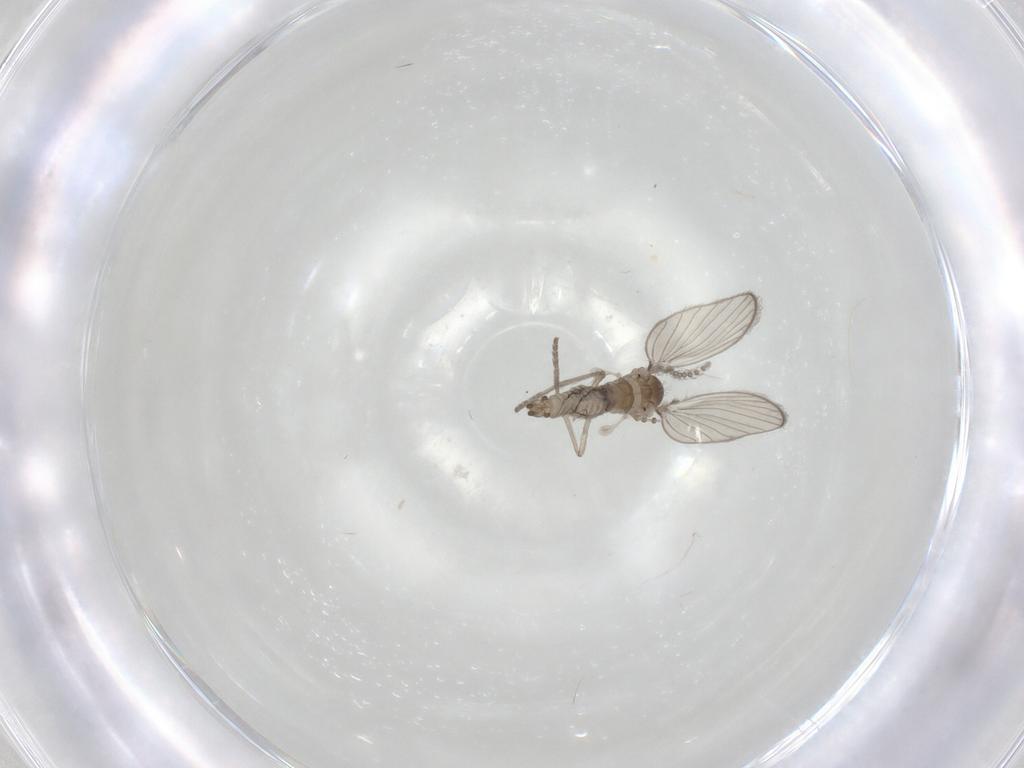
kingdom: Animalia
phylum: Arthropoda
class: Insecta
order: Diptera
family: Psychodidae
